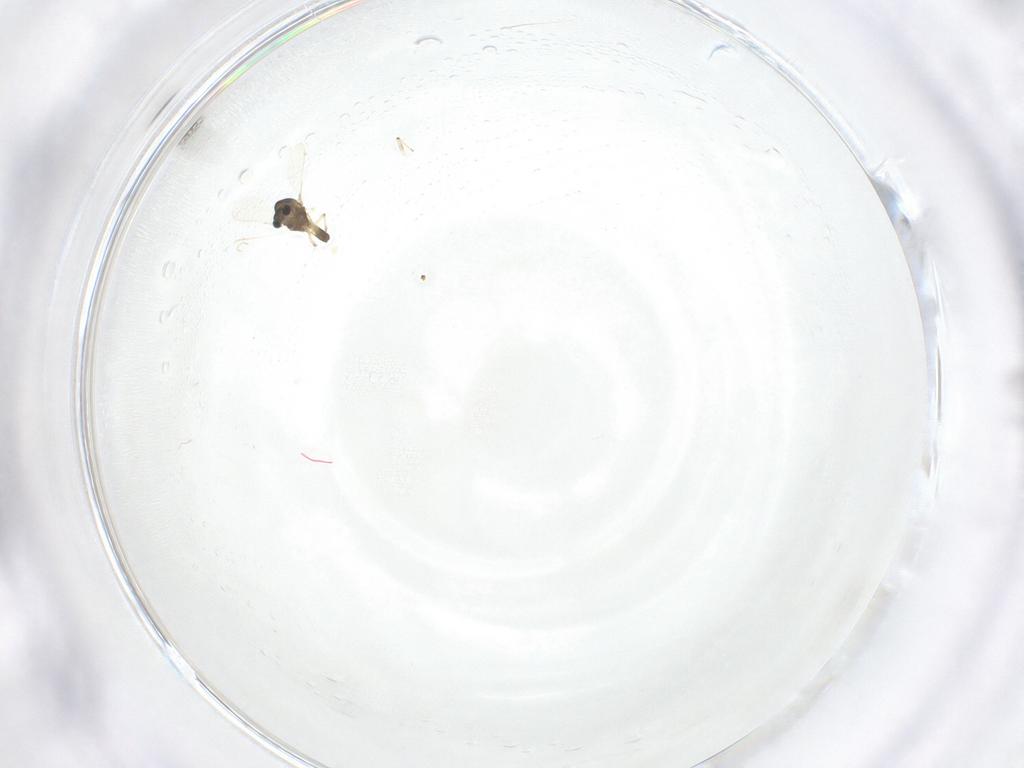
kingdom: Animalia
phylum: Arthropoda
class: Insecta
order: Diptera
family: Chironomidae
